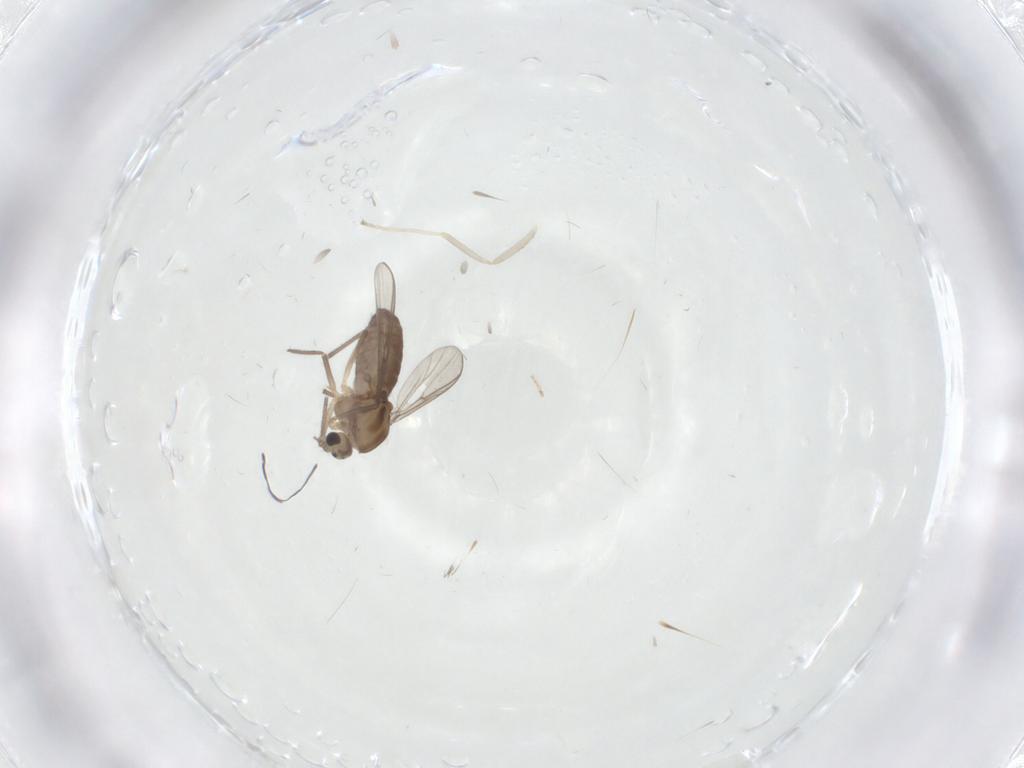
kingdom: Animalia
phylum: Arthropoda
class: Insecta
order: Diptera
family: Chironomidae
